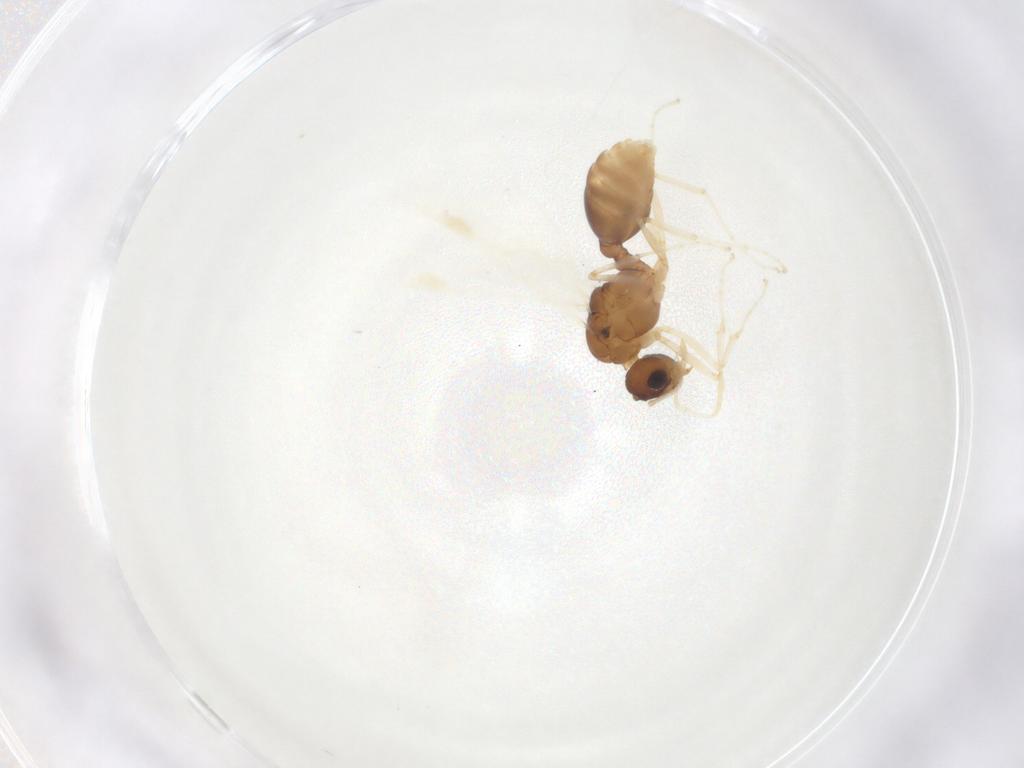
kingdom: Animalia
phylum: Arthropoda
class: Insecta
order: Hymenoptera
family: Formicidae
